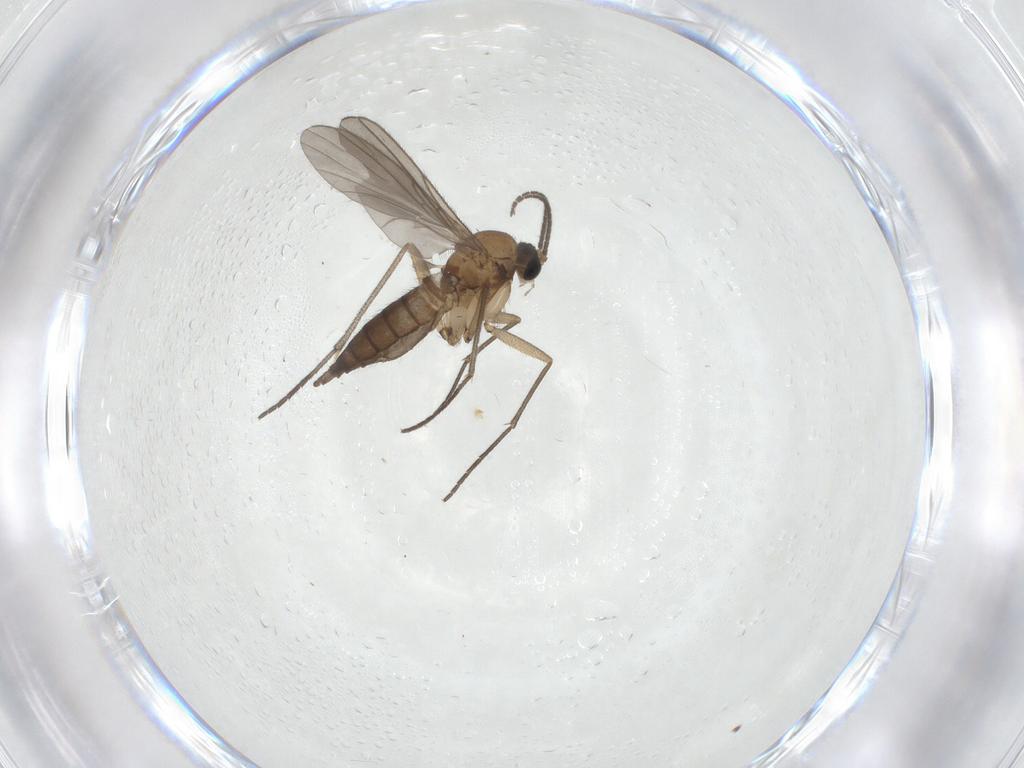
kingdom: Animalia
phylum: Arthropoda
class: Insecta
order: Diptera
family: Sciaridae
